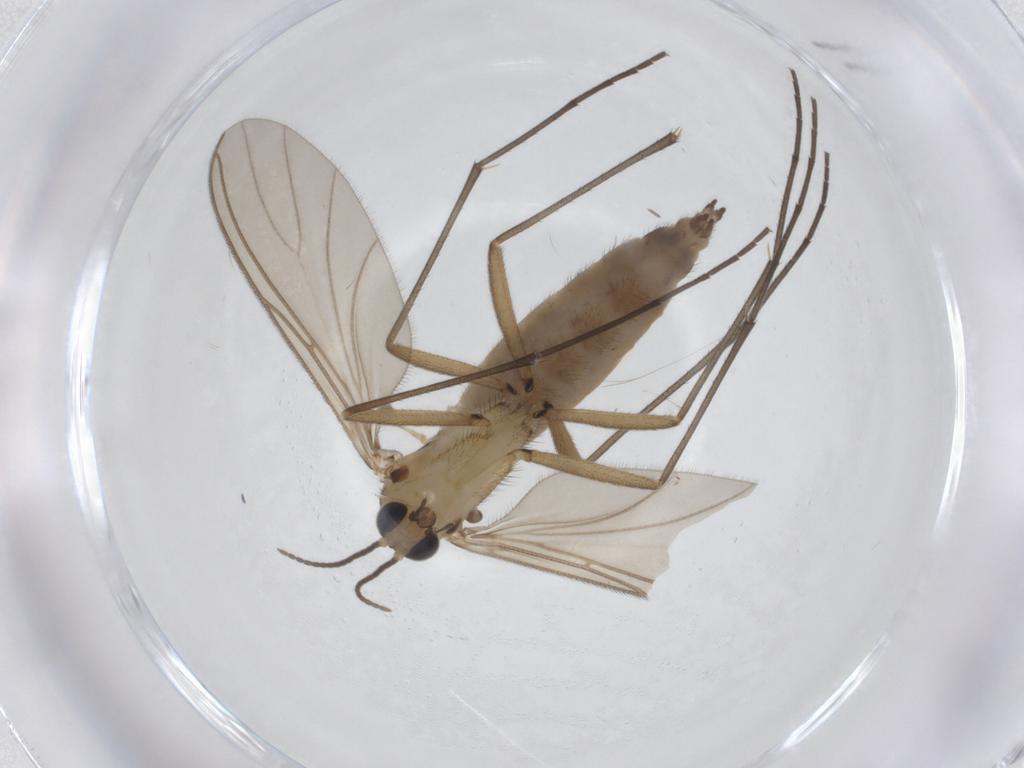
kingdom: Animalia
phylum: Arthropoda
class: Insecta
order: Diptera
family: Sciaridae
